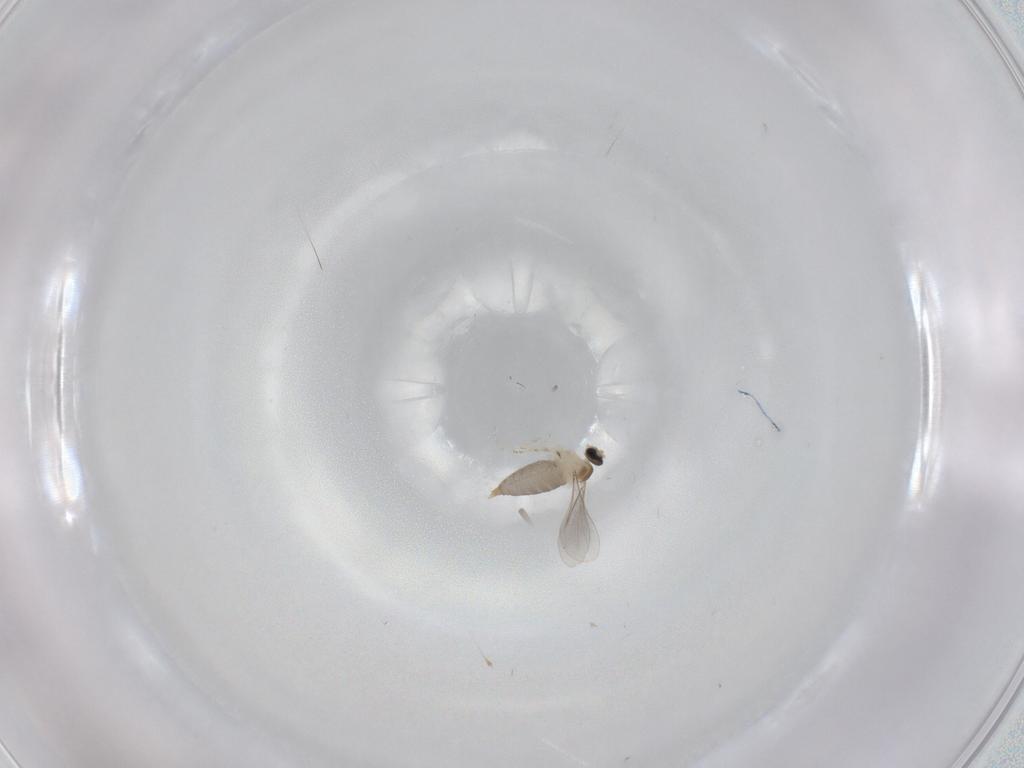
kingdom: Animalia
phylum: Arthropoda
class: Insecta
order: Diptera
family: Cecidomyiidae
